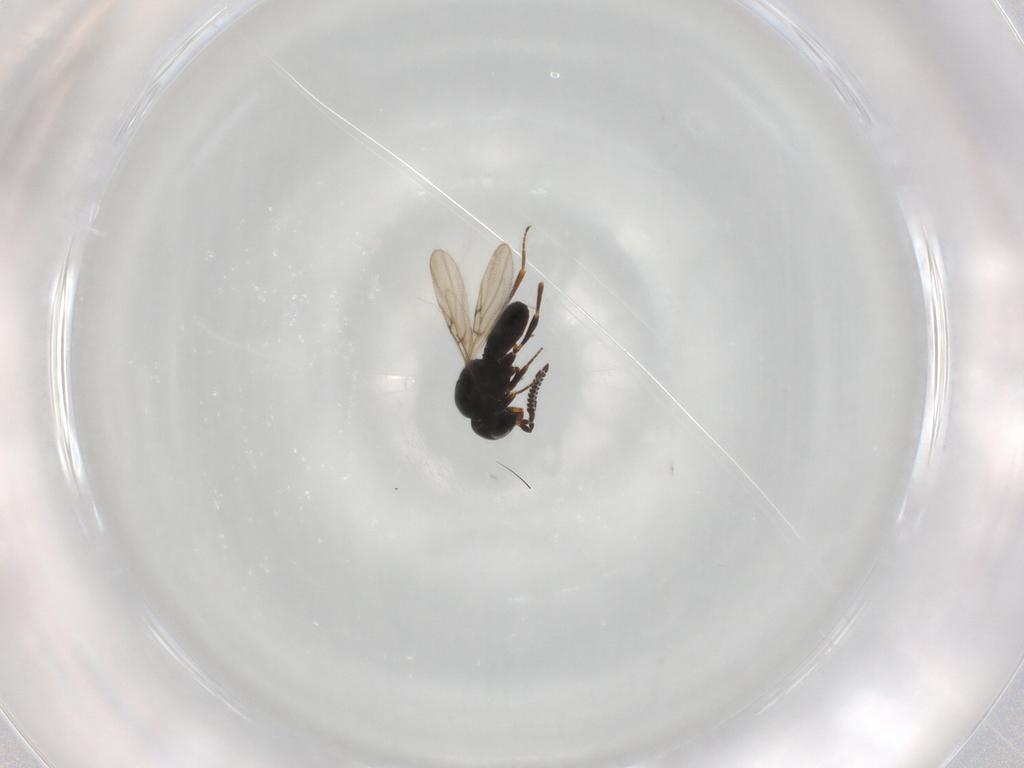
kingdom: Animalia
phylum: Arthropoda
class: Insecta
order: Hymenoptera
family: Scelionidae
